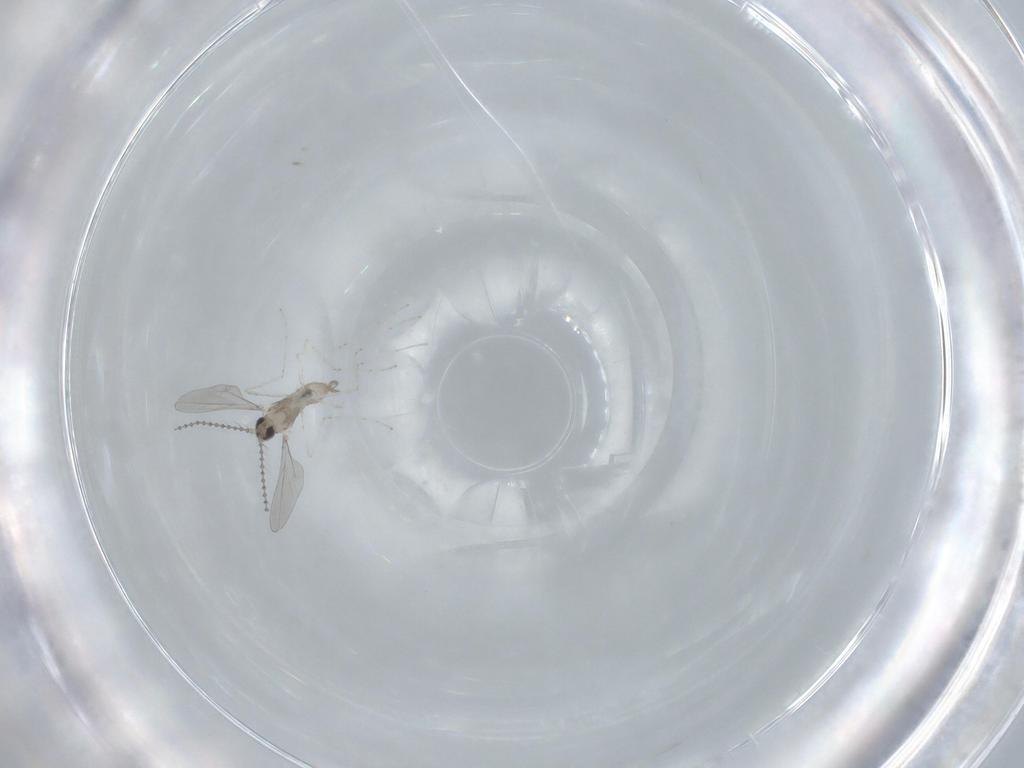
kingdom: Animalia
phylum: Arthropoda
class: Insecta
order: Diptera
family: Cecidomyiidae
